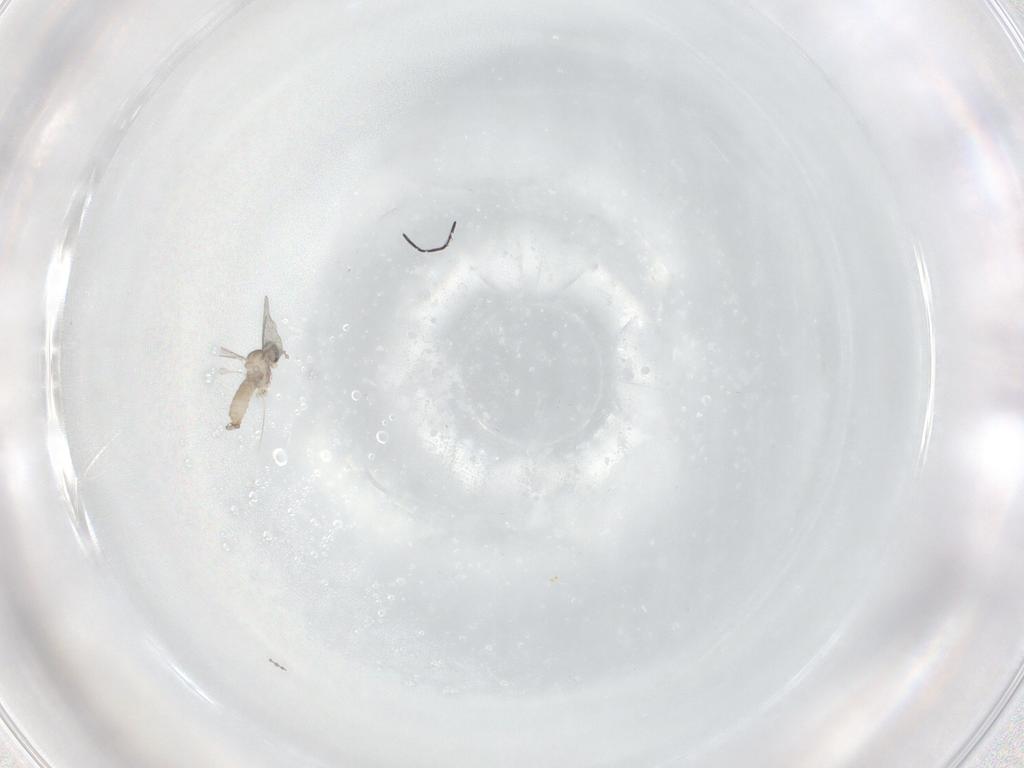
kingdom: Animalia
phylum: Arthropoda
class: Insecta
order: Diptera
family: Cecidomyiidae
